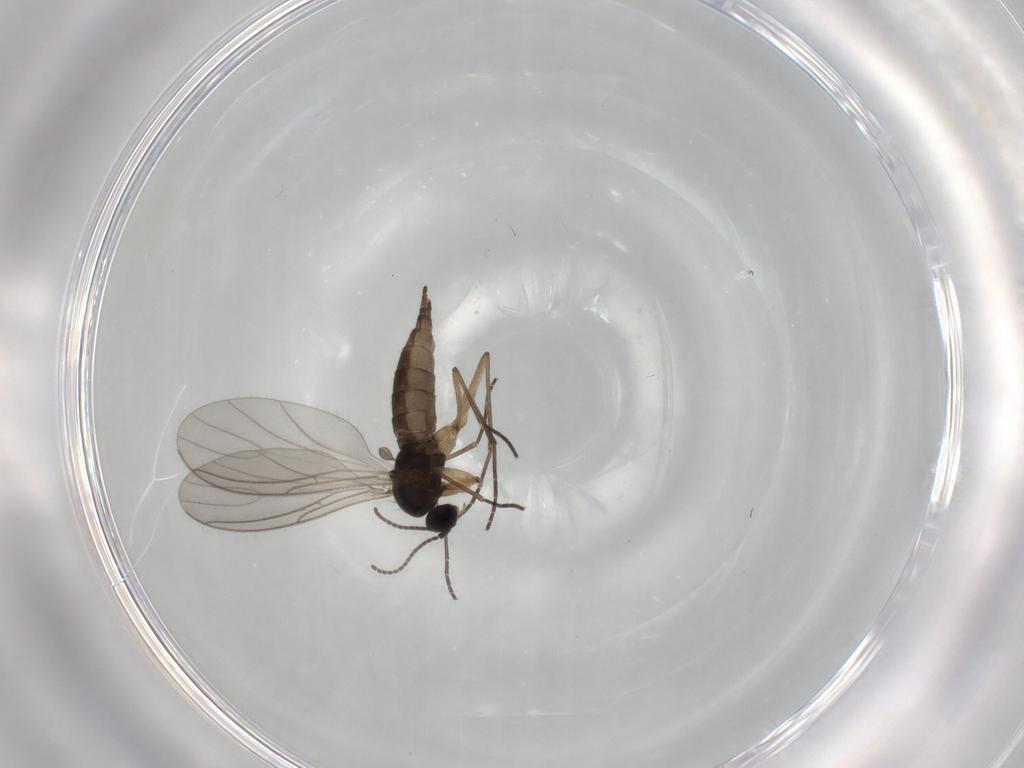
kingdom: Animalia
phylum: Arthropoda
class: Insecta
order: Diptera
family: Sciaridae
